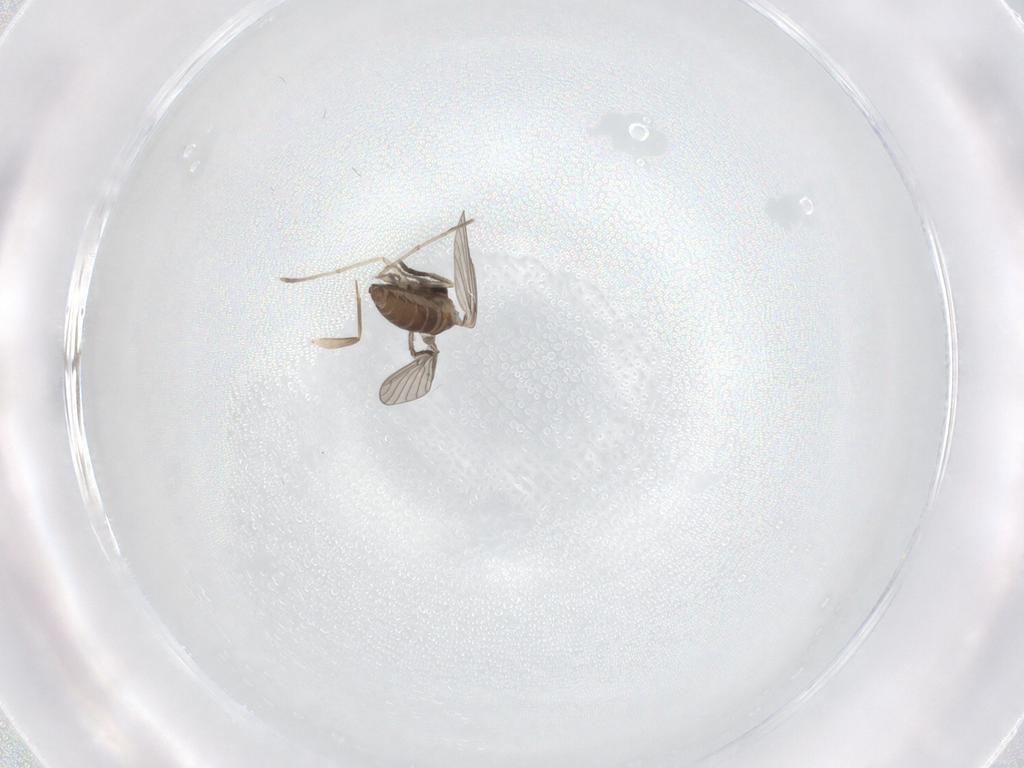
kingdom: Animalia
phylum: Arthropoda
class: Insecta
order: Diptera
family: Chironomidae
